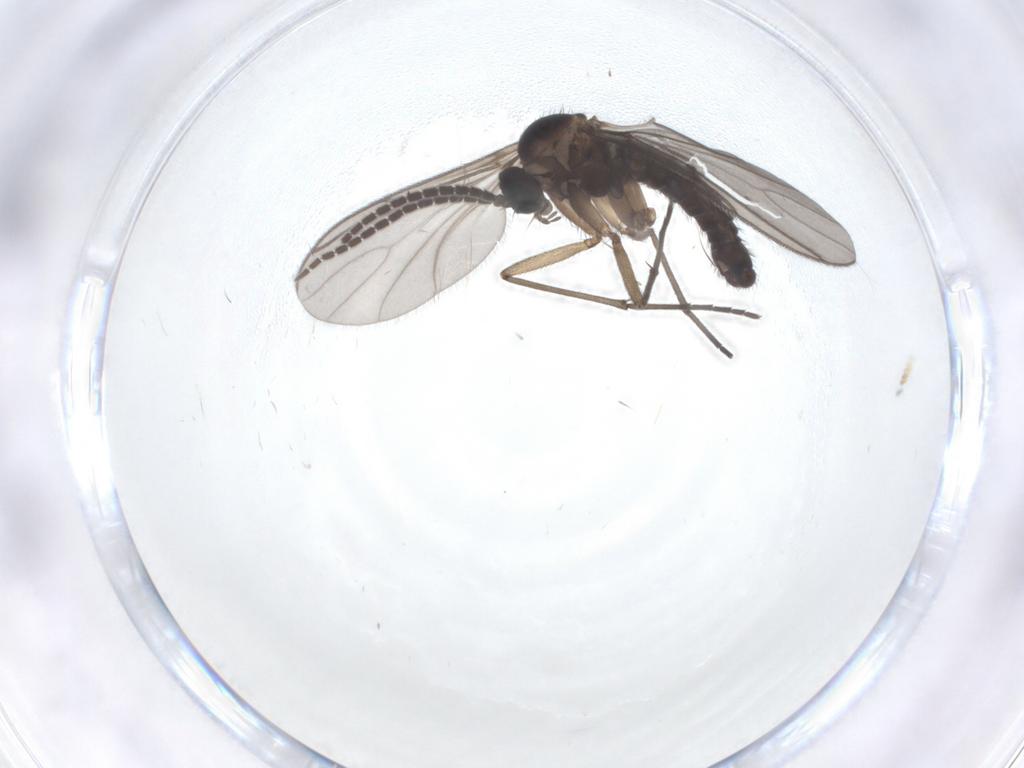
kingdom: Animalia
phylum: Arthropoda
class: Insecta
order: Diptera
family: Sciaridae
